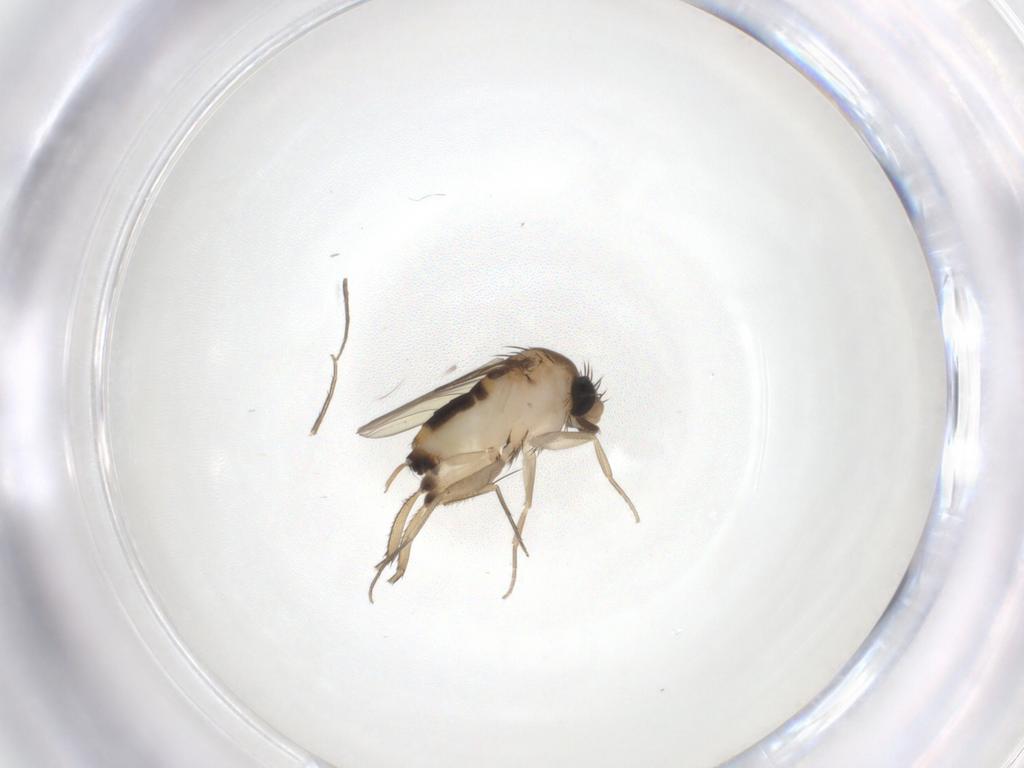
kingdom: Animalia
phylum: Arthropoda
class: Insecta
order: Diptera
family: Phoridae
